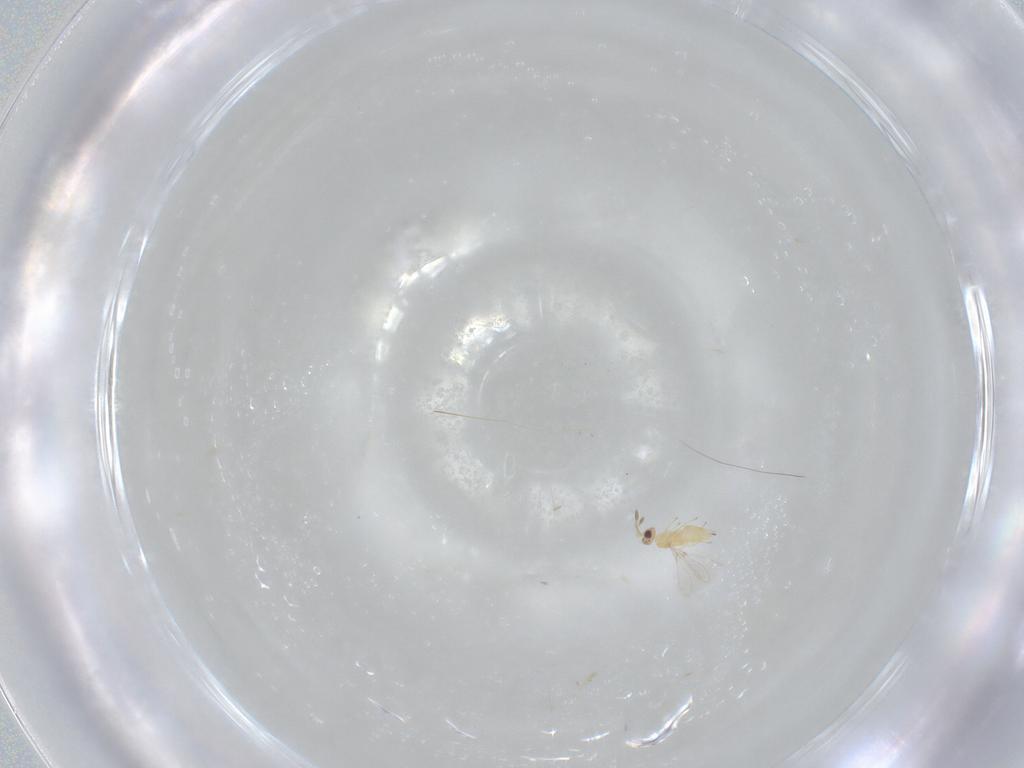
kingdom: Animalia
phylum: Arthropoda
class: Insecta
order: Hymenoptera
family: Mymaridae
